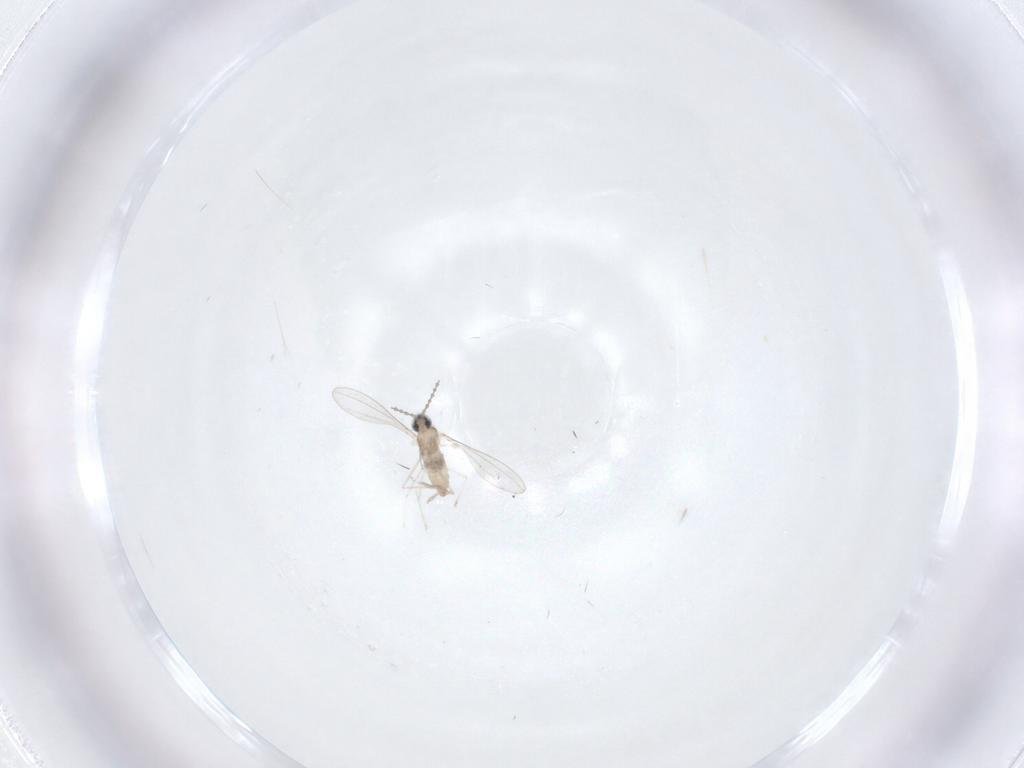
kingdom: Animalia
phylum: Arthropoda
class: Insecta
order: Diptera
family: Cecidomyiidae
